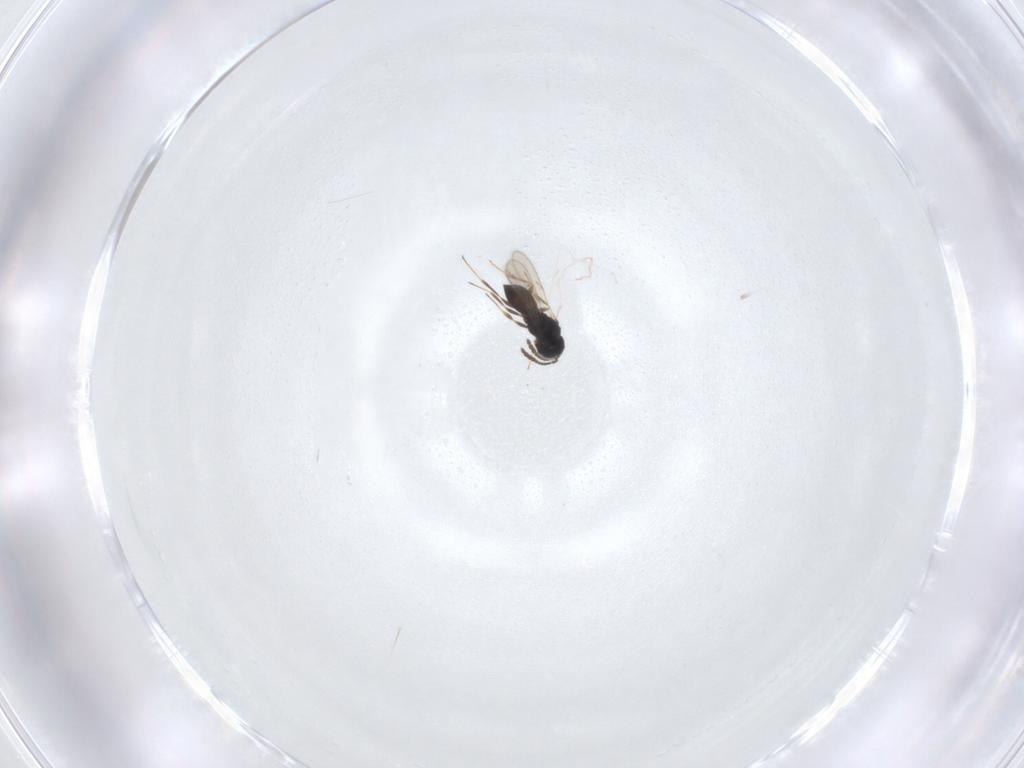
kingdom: Animalia
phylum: Arthropoda
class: Insecta
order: Hymenoptera
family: Scelionidae
